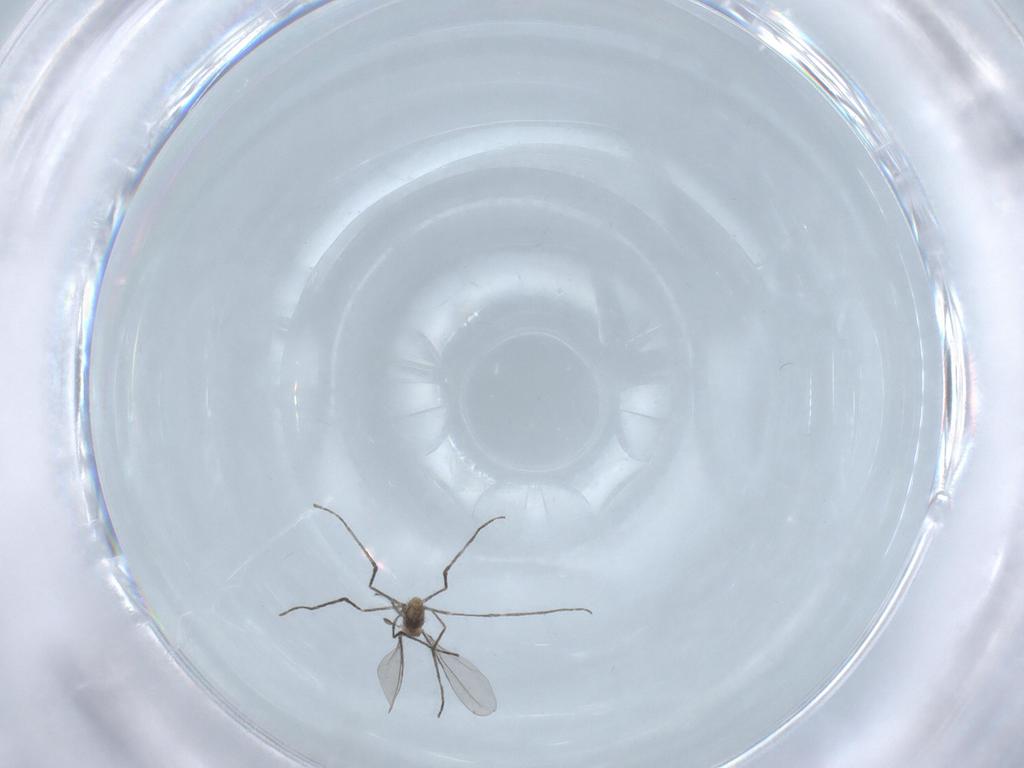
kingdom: Animalia
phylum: Arthropoda
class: Insecta
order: Diptera
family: Cecidomyiidae
